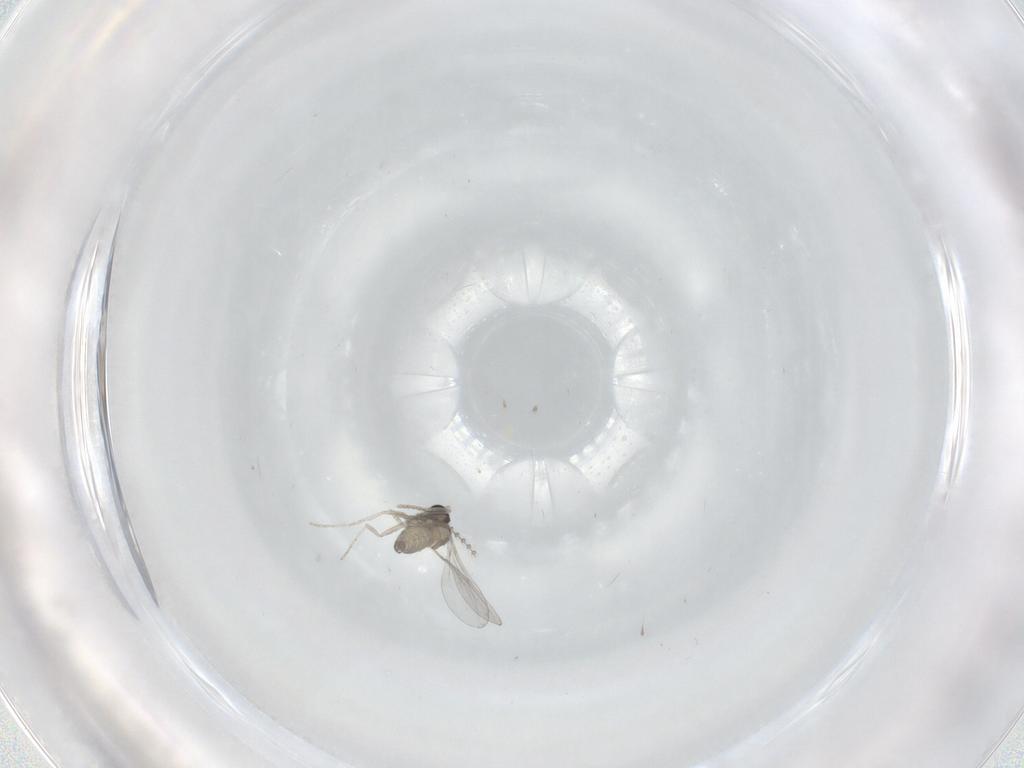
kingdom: Animalia
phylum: Arthropoda
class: Insecta
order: Diptera
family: Cecidomyiidae
